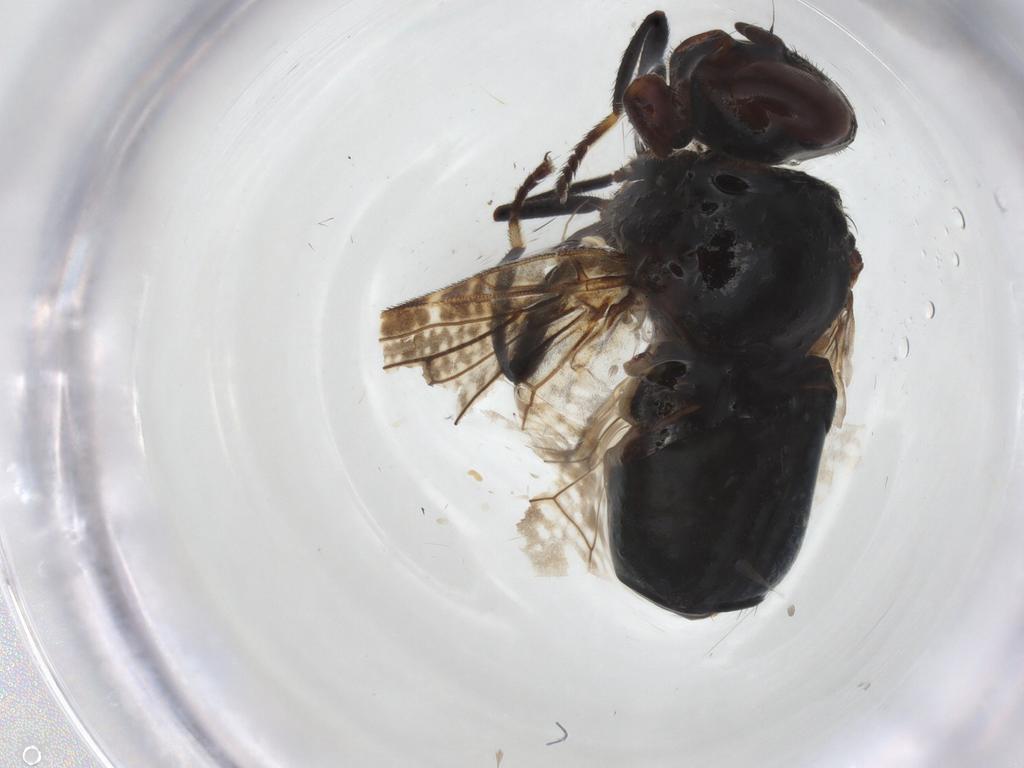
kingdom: Animalia
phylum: Arthropoda
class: Insecta
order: Diptera
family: Platystomatidae
